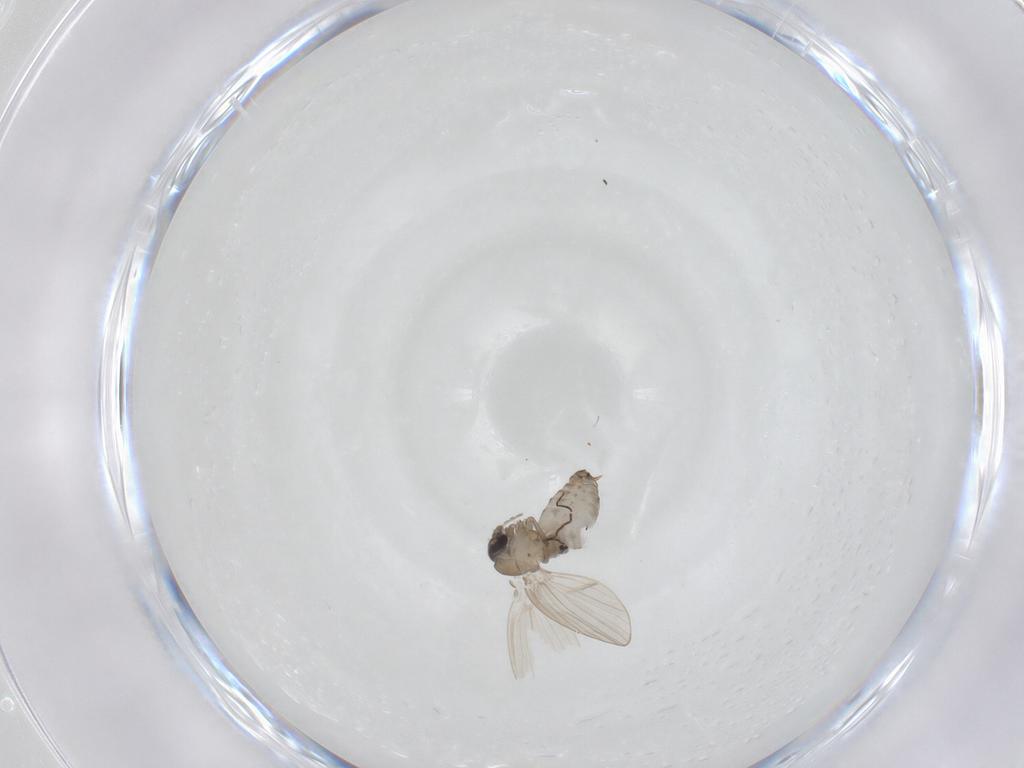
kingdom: Animalia
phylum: Arthropoda
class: Insecta
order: Diptera
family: Psychodidae
